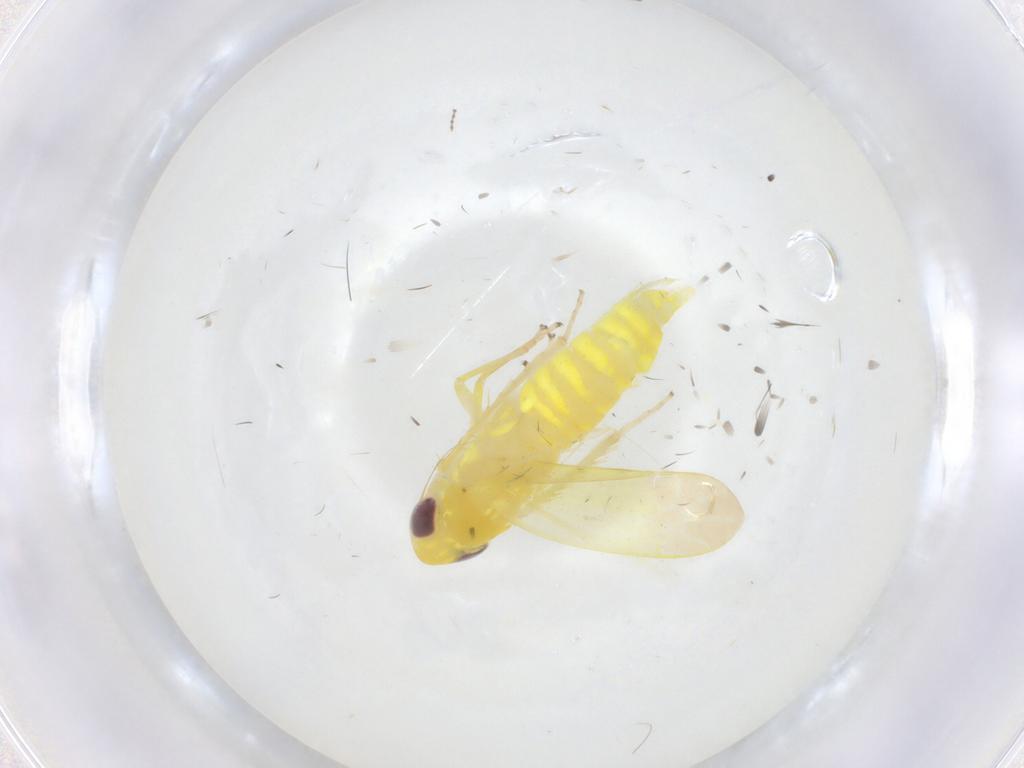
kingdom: Animalia
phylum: Arthropoda
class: Insecta
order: Hemiptera
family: Cicadellidae
